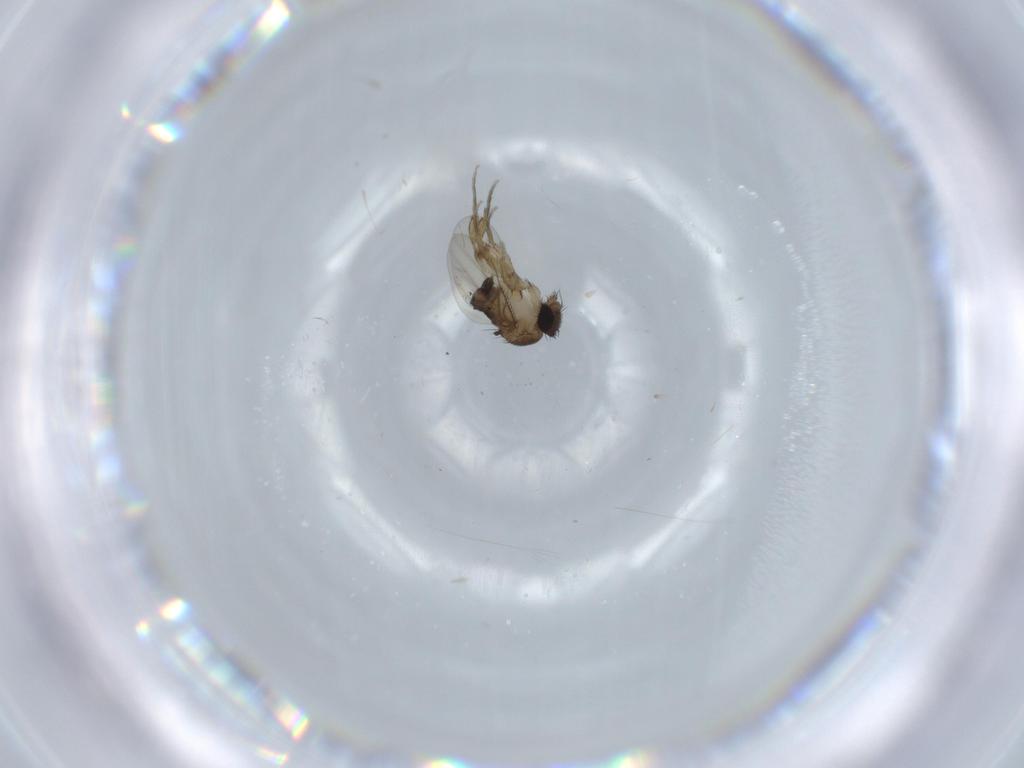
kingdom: Animalia
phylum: Arthropoda
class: Insecta
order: Diptera
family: Phoridae
